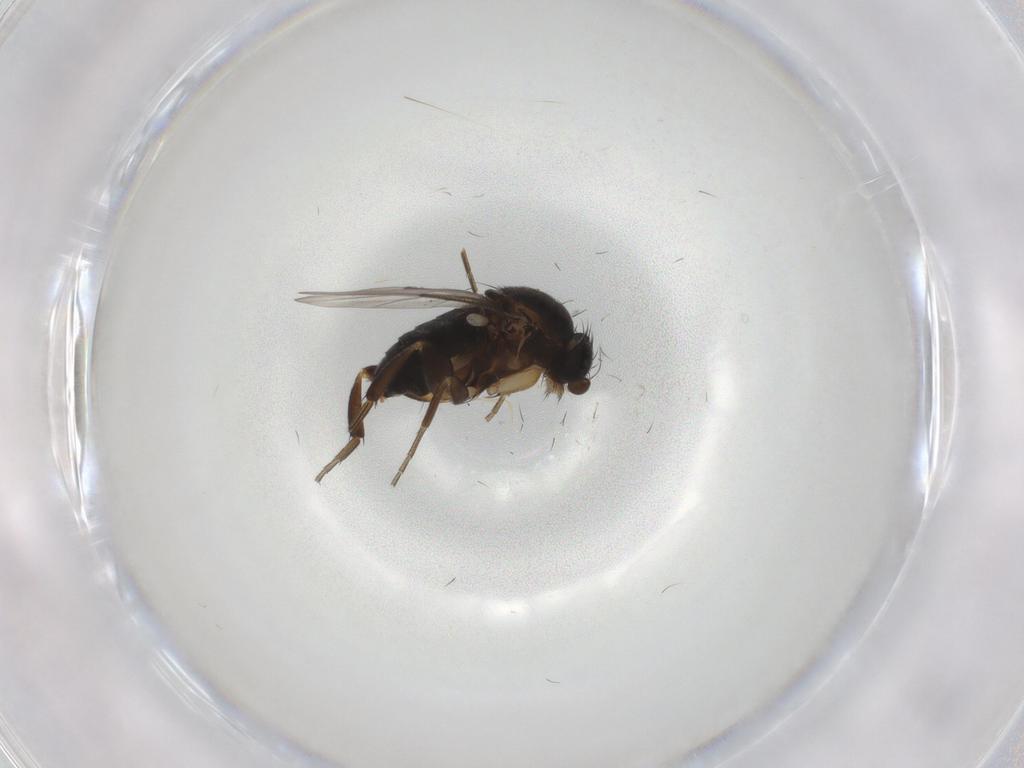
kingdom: Animalia
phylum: Arthropoda
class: Insecta
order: Diptera
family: Phoridae
